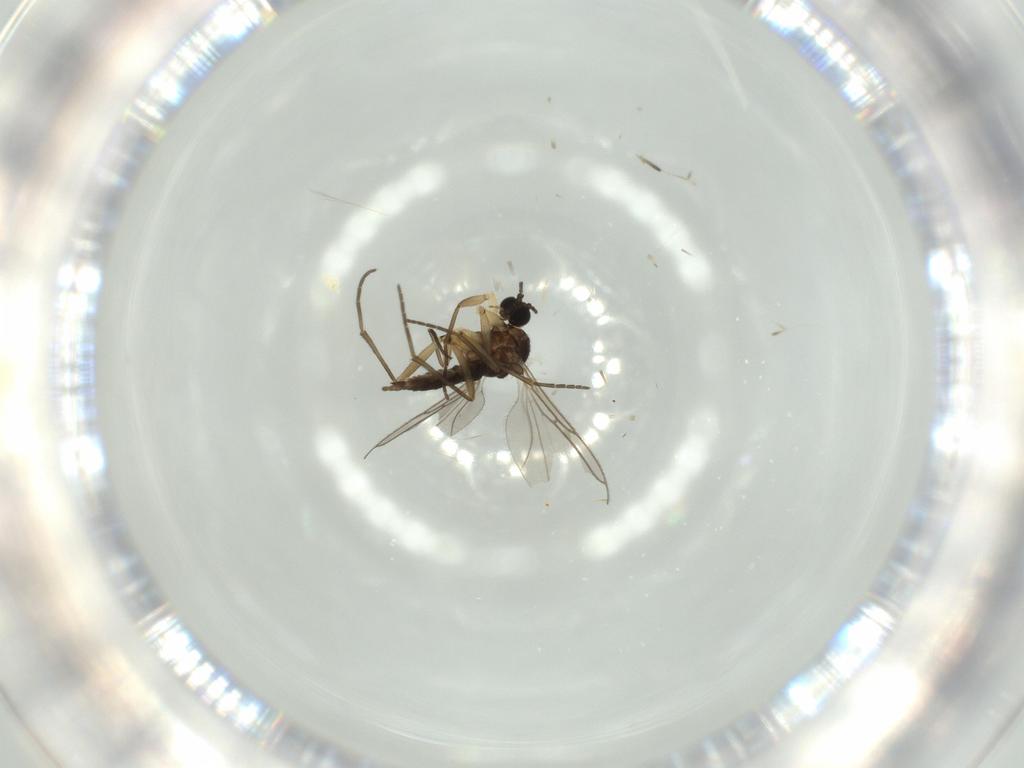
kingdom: Animalia
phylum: Arthropoda
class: Insecta
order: Diptera
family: Sciaridae
